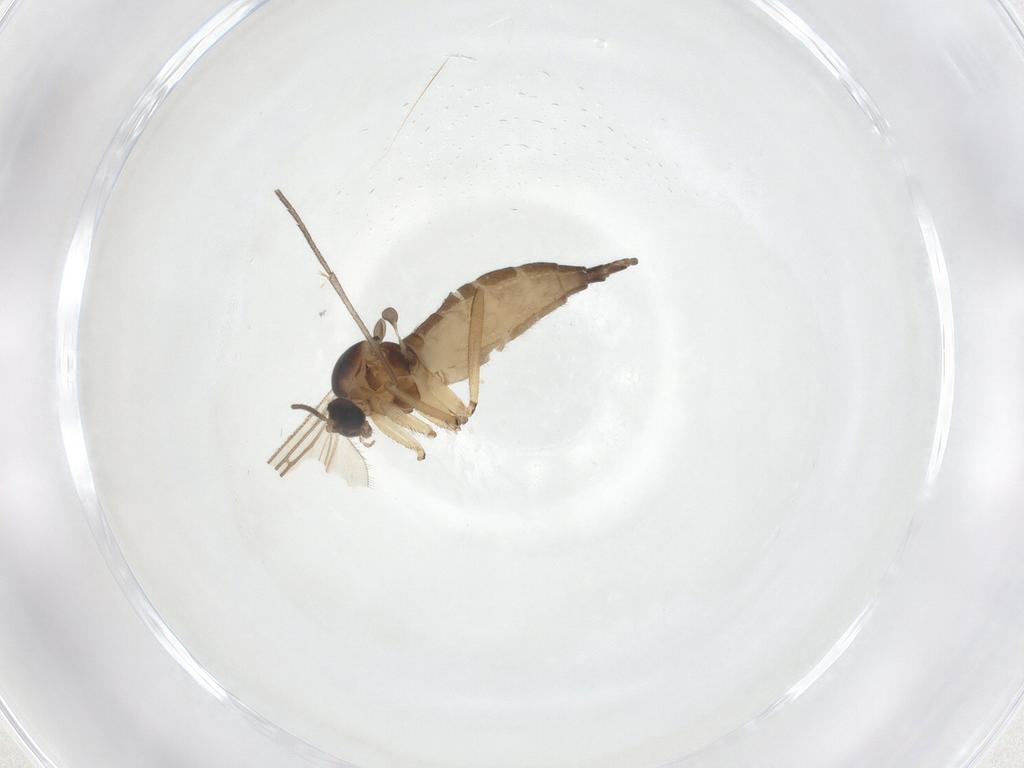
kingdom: Animalia
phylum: Arthropoda
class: Insecta
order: Diptera
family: Sciaridae
